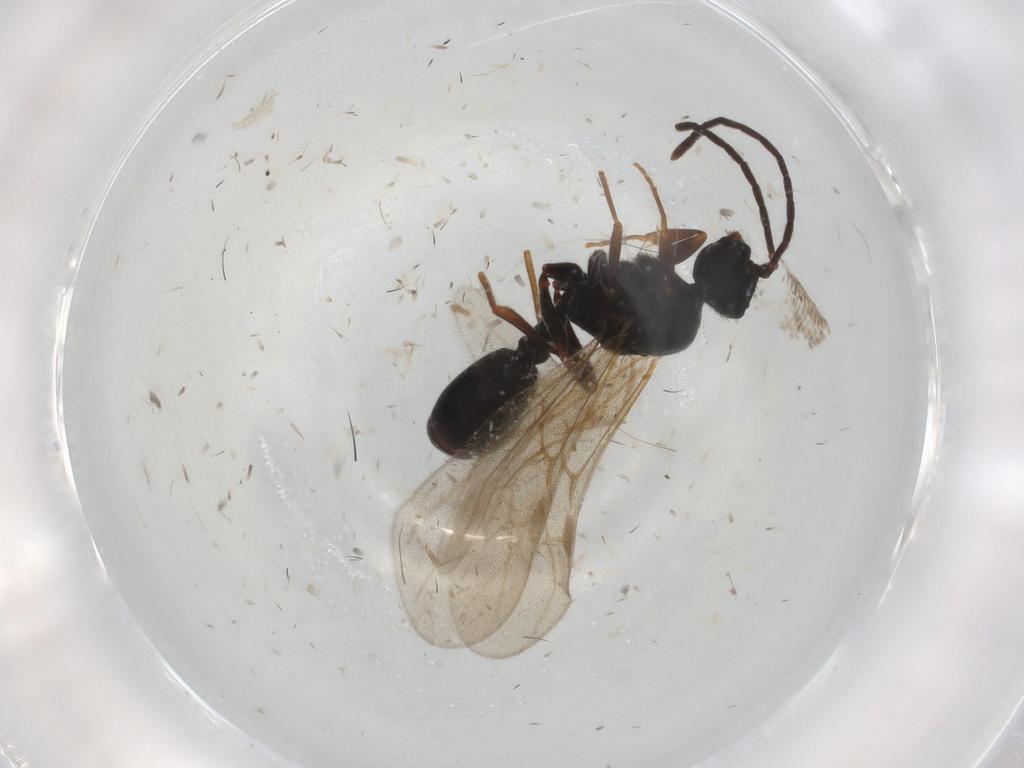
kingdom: Animalia
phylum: Arthropoda
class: Insecta
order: Hymenoptera
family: Formicidae
